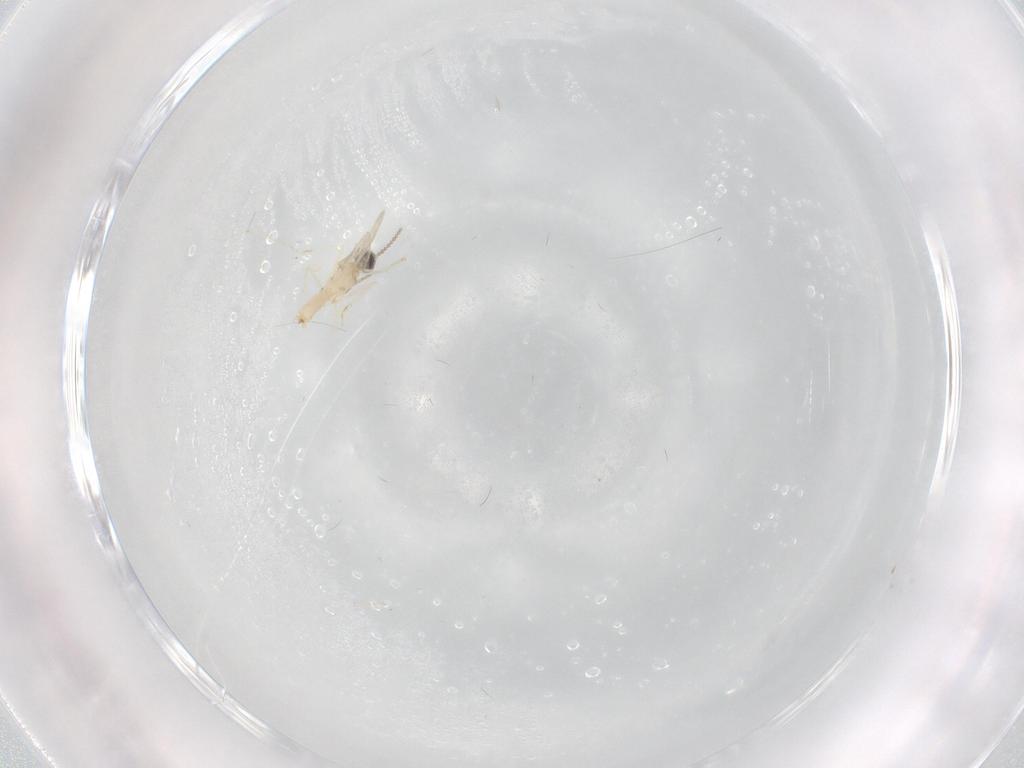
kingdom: Animalia
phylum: Arthropoda
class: Insecta
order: Diptera
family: Cecidomyiidae
